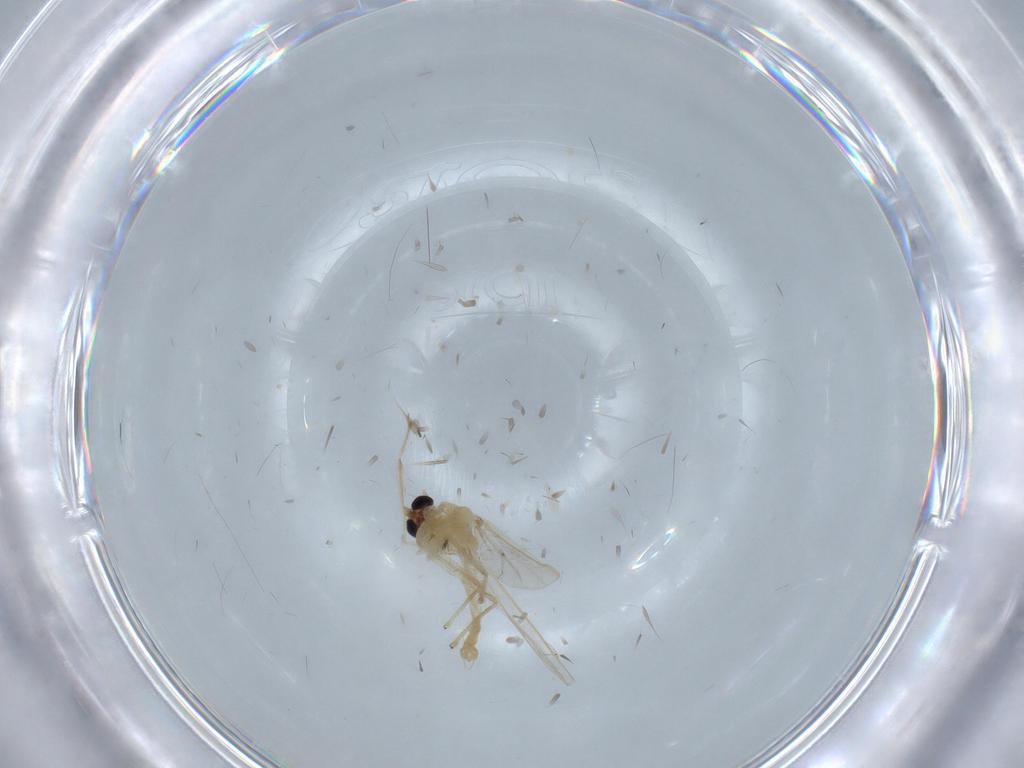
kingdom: Animalia
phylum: Arthropoda
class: Insecta
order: Diptera
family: Chironomidae
